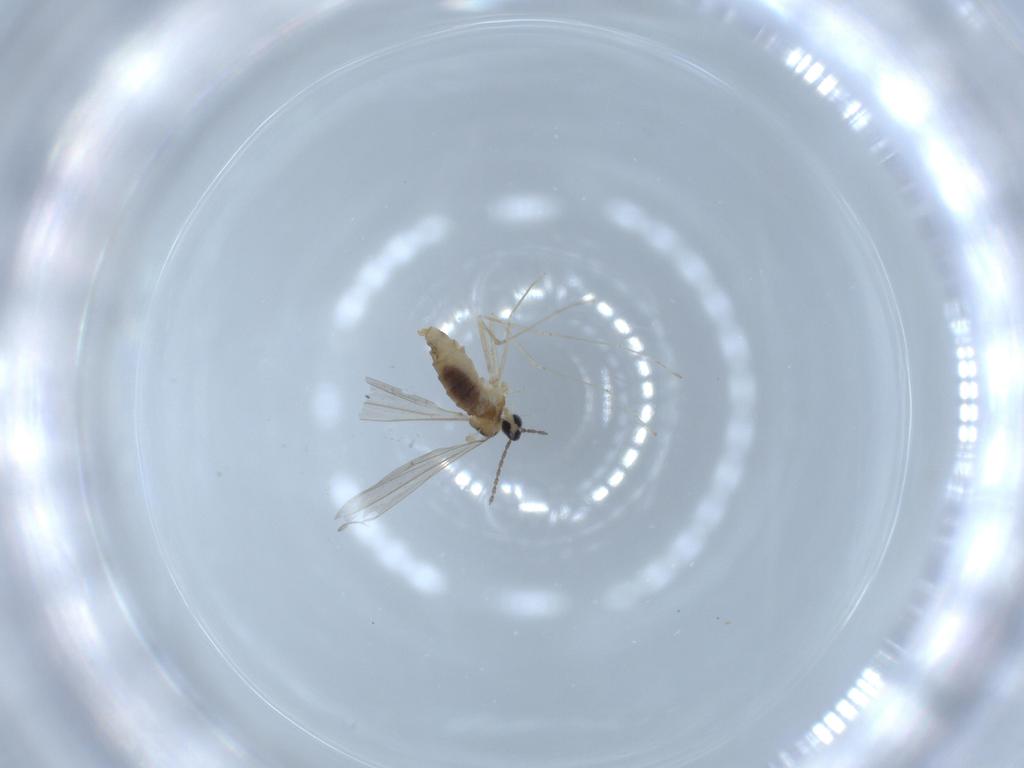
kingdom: Animalia
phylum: Arthropoda
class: Insecta
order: Diptera
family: Cecidomyiidae
